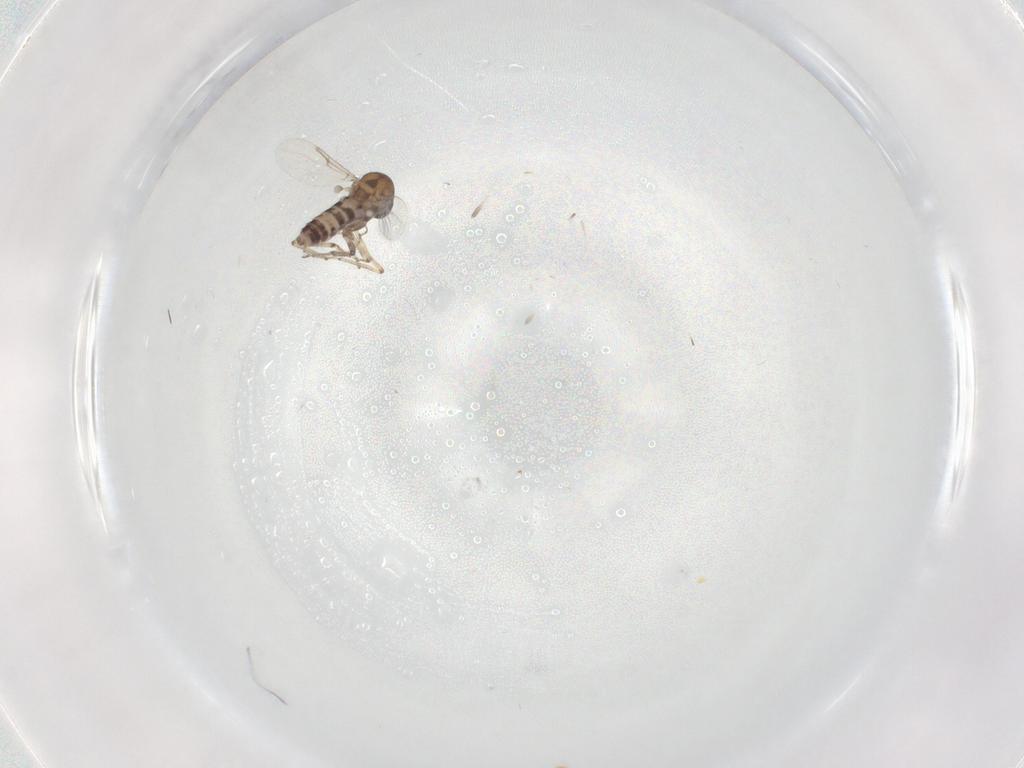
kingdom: Animalia
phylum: Arthropoda
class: Insecta
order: Diptera
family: Ceratopogonidae
